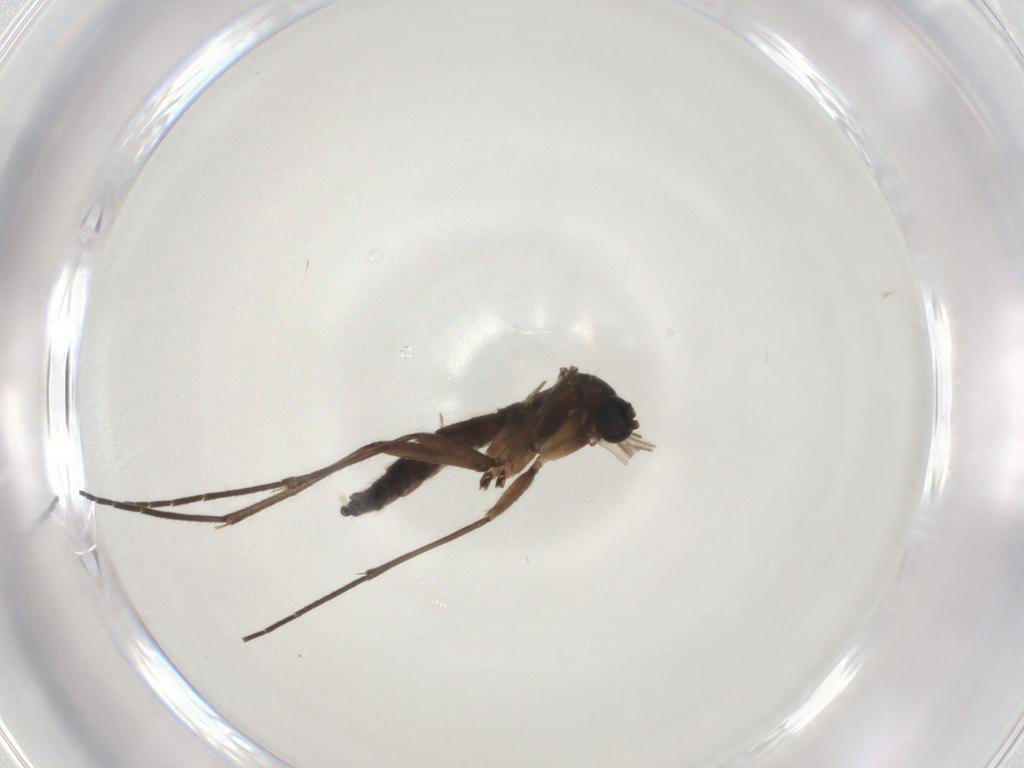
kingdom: Animalia
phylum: Arthropoda
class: Insecta
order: Diptera
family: Sciaridae
